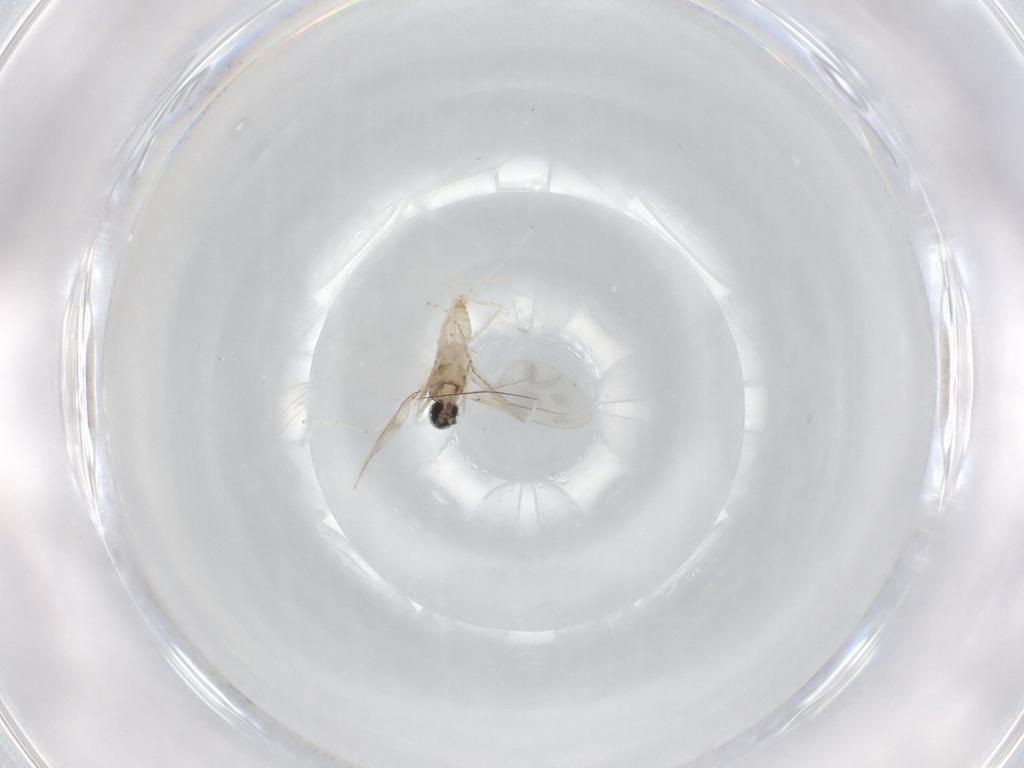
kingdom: Animalia
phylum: Arthropoda
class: Insecta
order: Diptera
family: Cecidomyiidae
